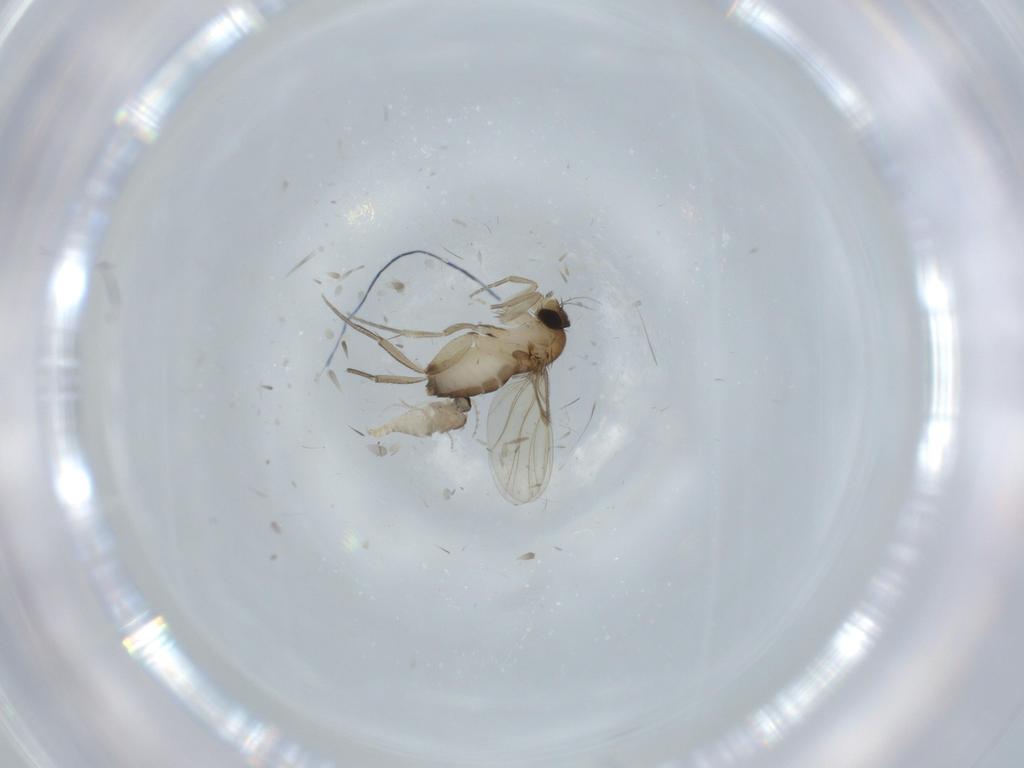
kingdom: Animalia
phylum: Arthropoda
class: Insecta
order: Diptera
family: Phoridae
